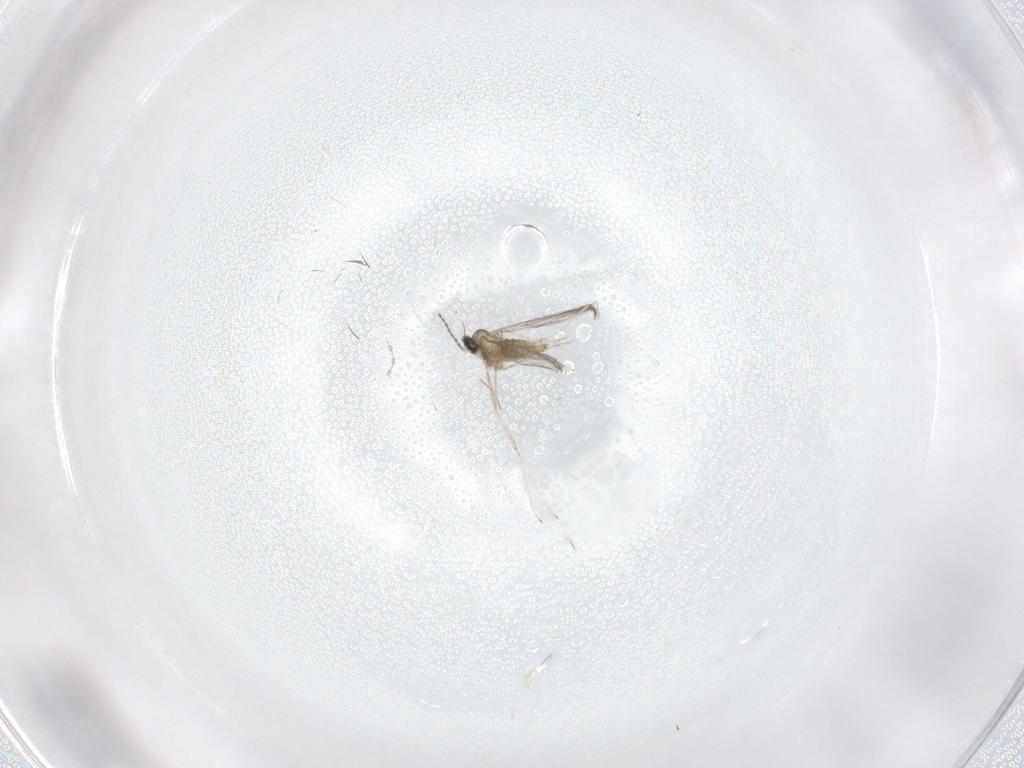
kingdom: Animalia
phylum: Arthropoda
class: Insecta
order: Diptera
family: Cecidomyiidae
